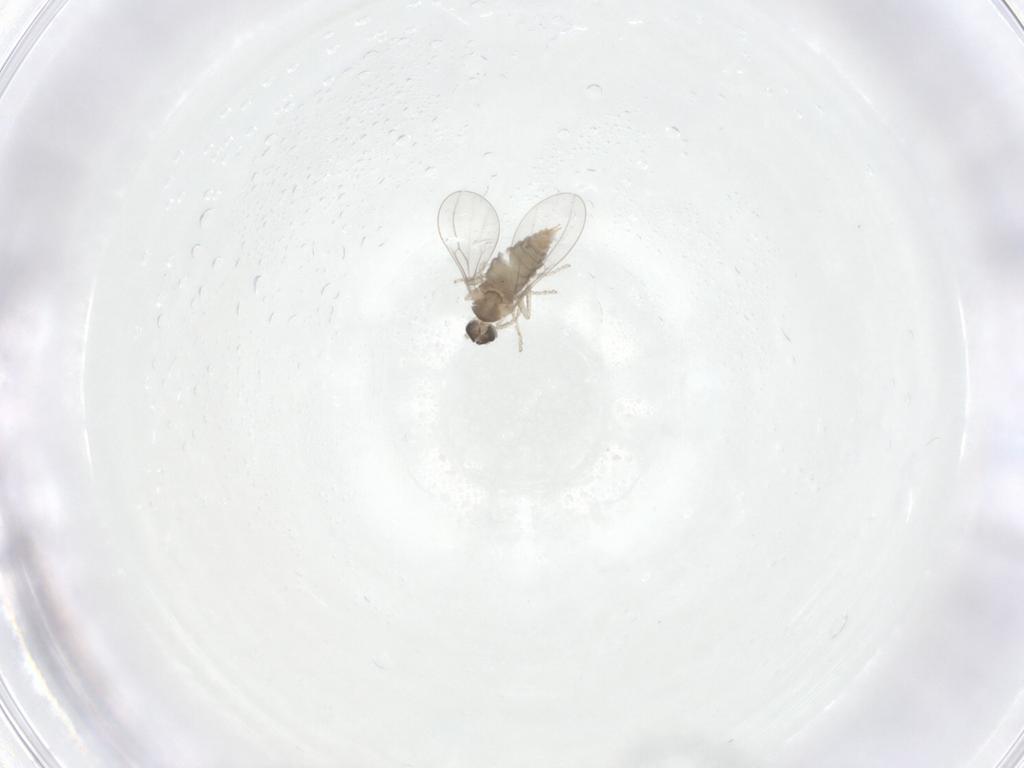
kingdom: Animalia
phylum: Arthropoda
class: Insecta
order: Diptera
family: Cecidomyiidae
